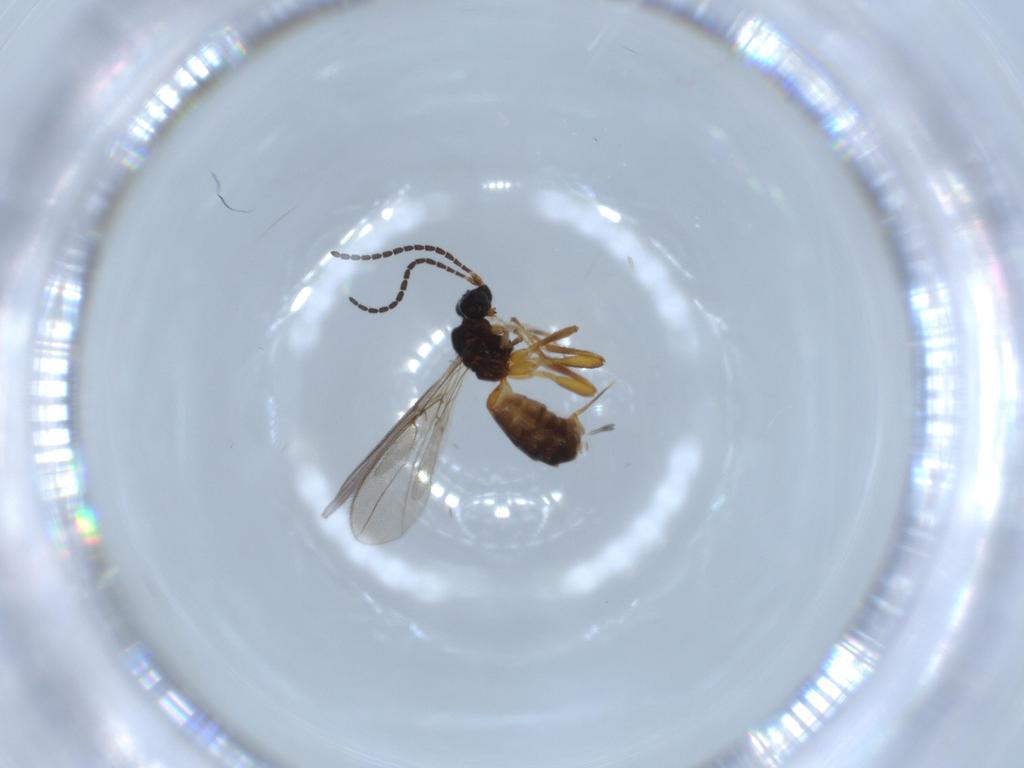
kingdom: Animalia
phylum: Arthropoda
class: Insecta
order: Hymenoptera
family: Braconidae
